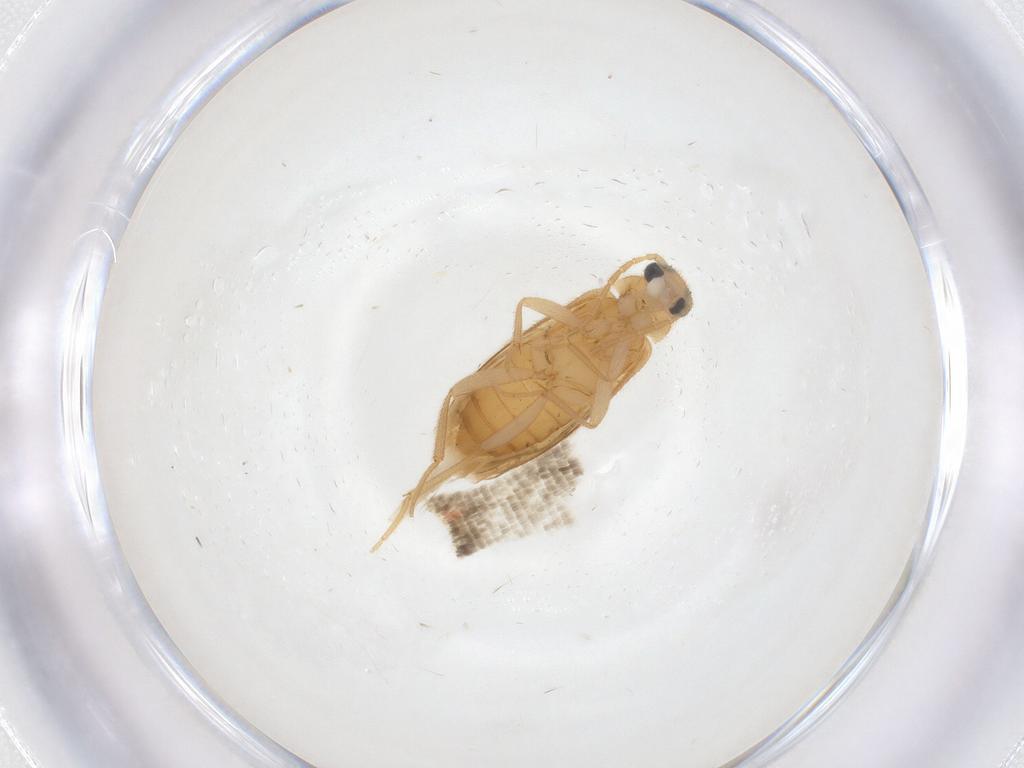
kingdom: Animalia
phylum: Arthropoda
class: Insecta
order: Coleoptera
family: Scraptiidae
